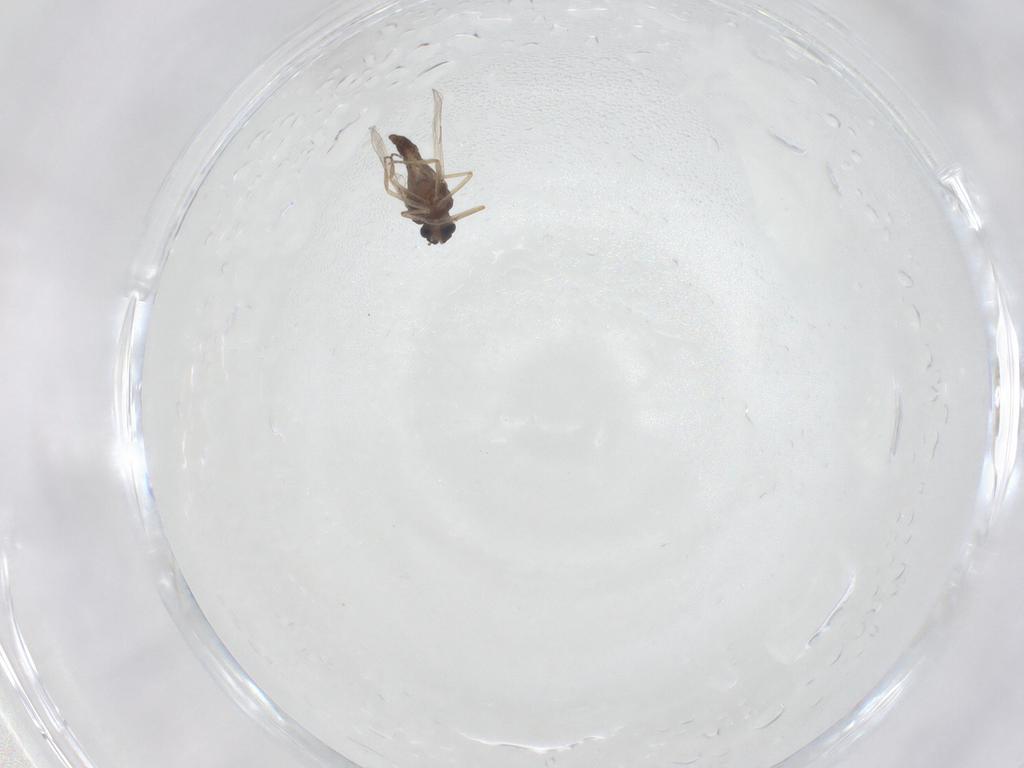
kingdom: Animalia
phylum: Arthropoda
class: Insecta
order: Diptera
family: Ceratopogonidae
